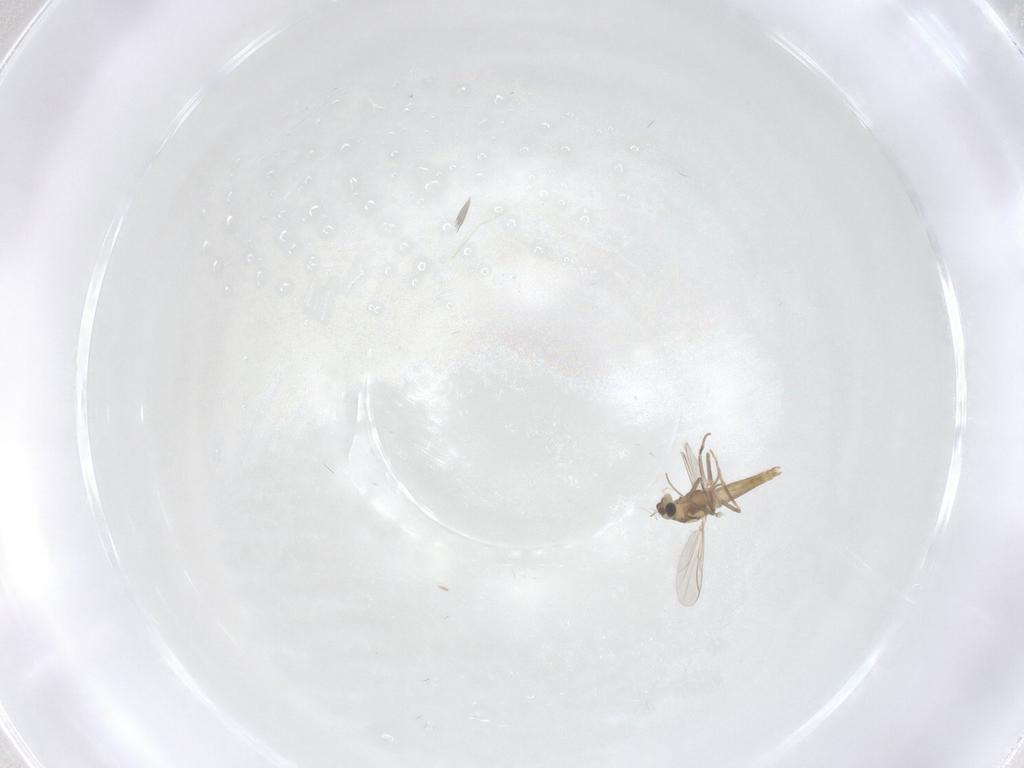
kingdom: Animalia
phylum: Arthropoda
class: Insecta
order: Diptera
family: Chironomidae
